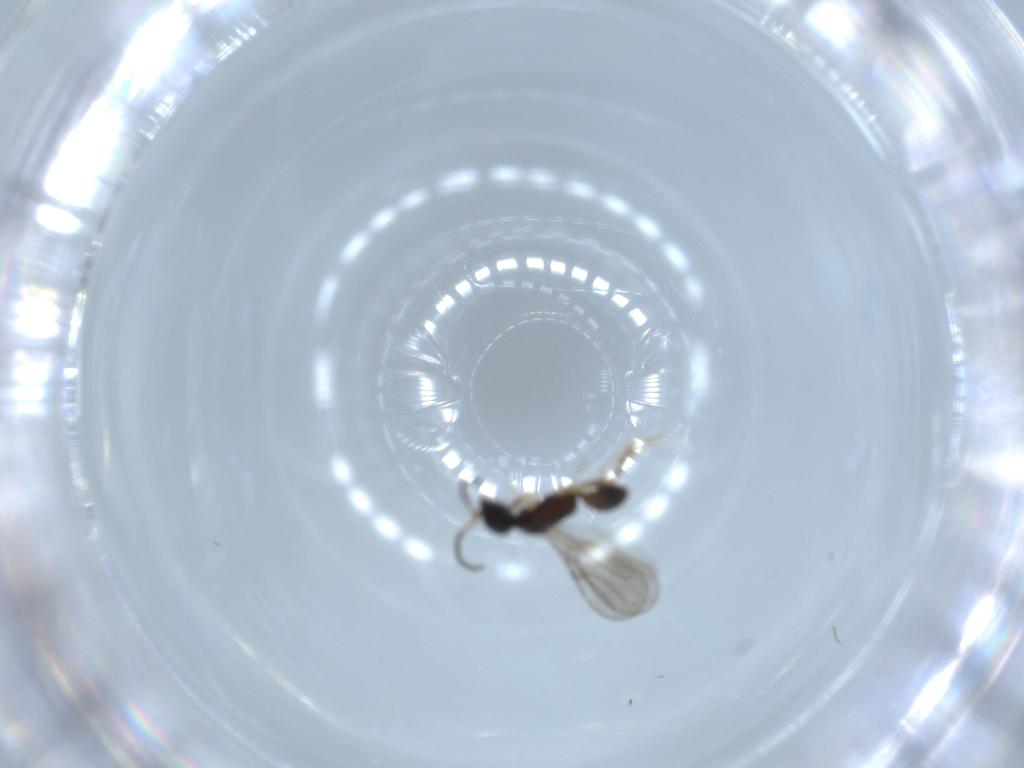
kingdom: Animalia
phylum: Arthropoda
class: Insecta
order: Hymenoptera
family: Bethylidae
